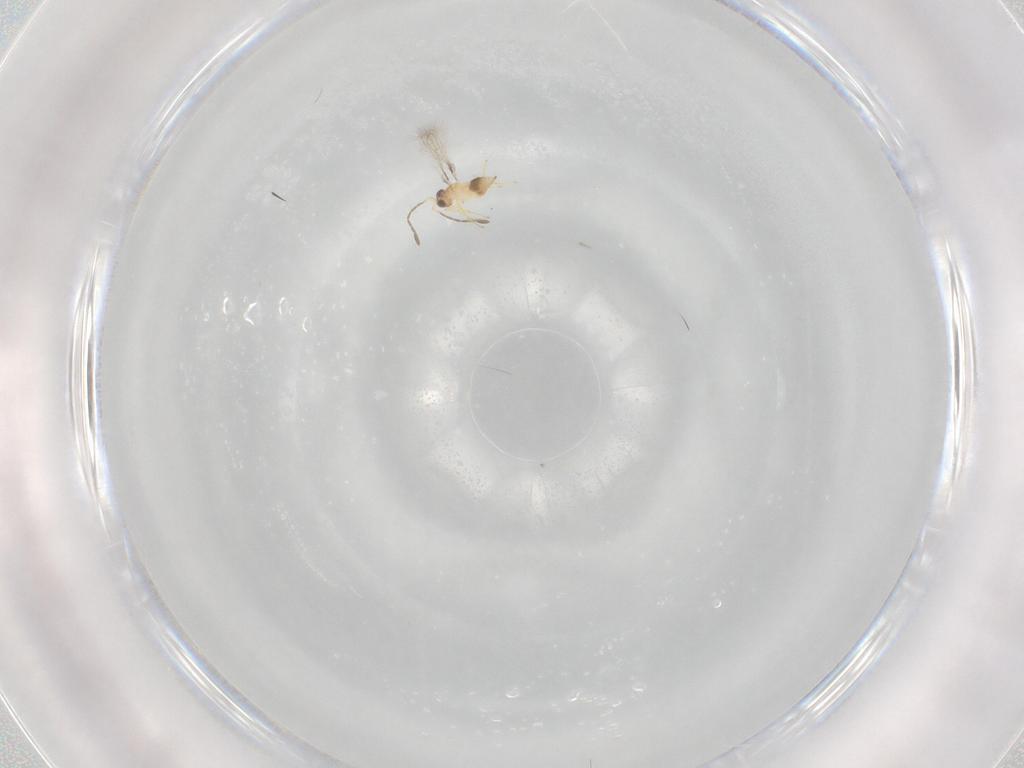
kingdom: Animalia
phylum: Arthropoda
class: Insecta
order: Hymenoptera
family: Mymaridae
